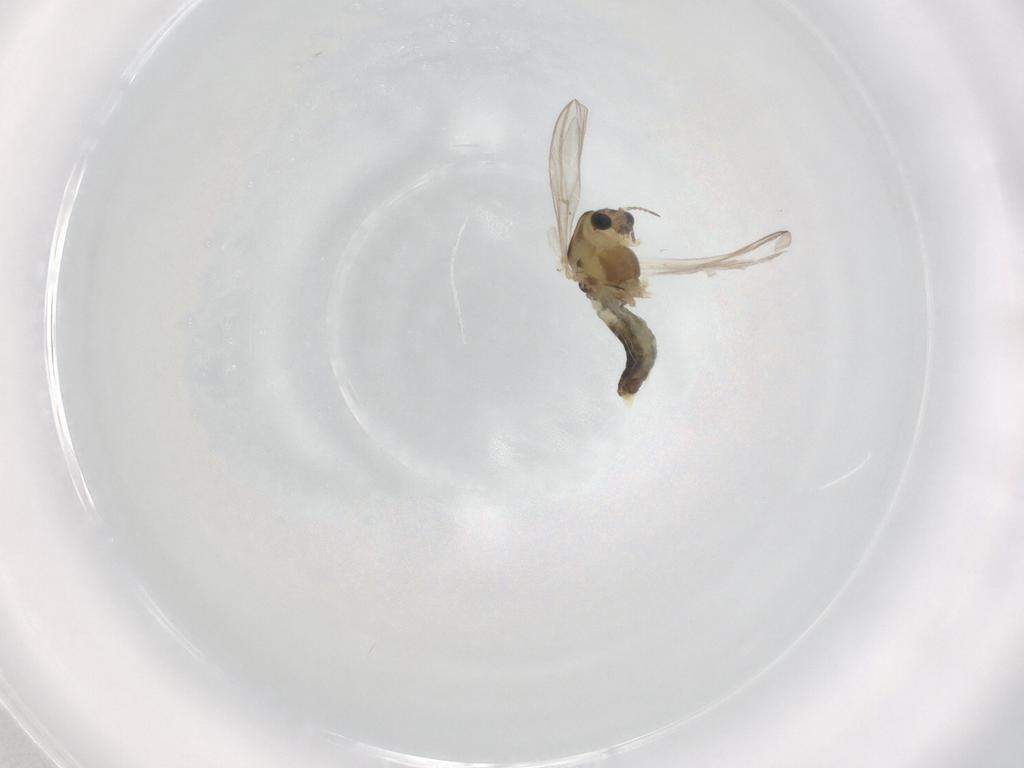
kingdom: Animalia
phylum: Arthropoda
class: Insecta
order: Diptera
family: Chironomidae
